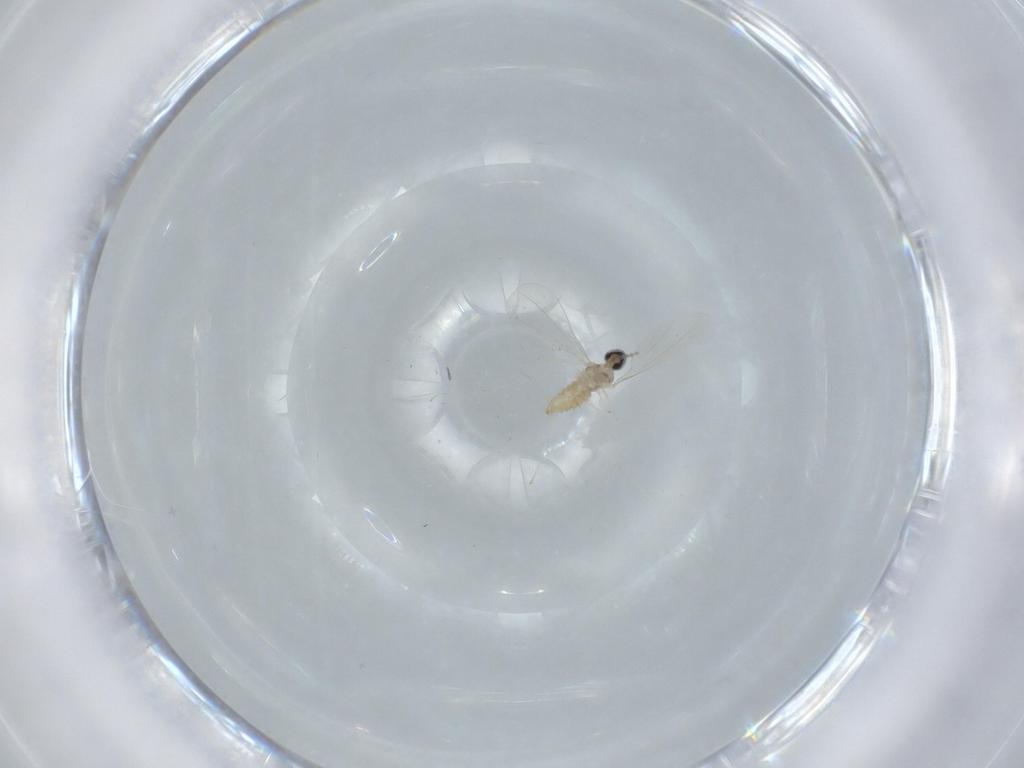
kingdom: Animalia
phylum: Arthropoda
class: Insecta
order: Diptera
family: Cecidomyiidae
